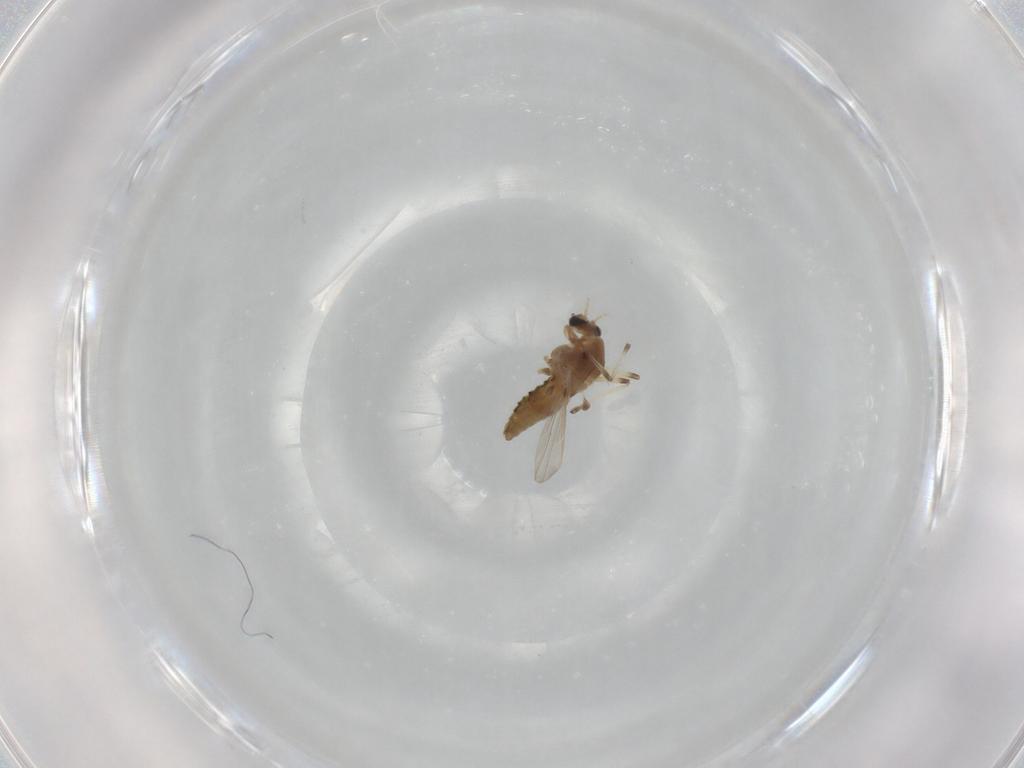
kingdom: Animalia
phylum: Arthropoda
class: Insecta
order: Diptera
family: Chironomidae
